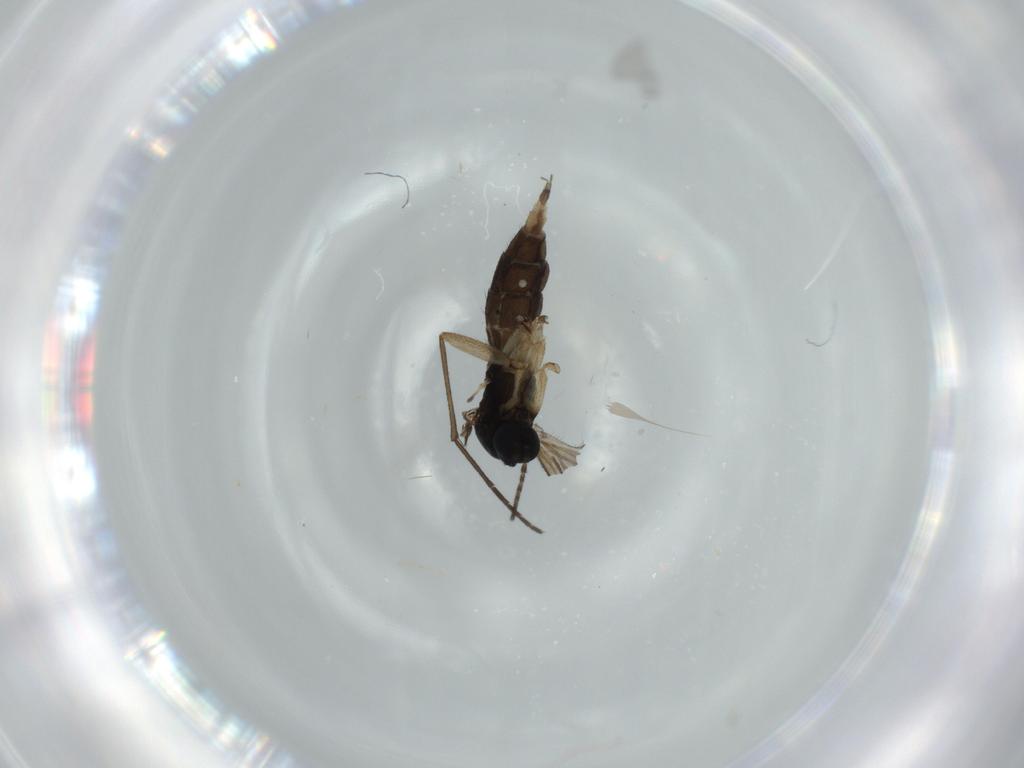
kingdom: Animalia
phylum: Arthropoda
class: Insecta
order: Diptera
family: Sciaridae
